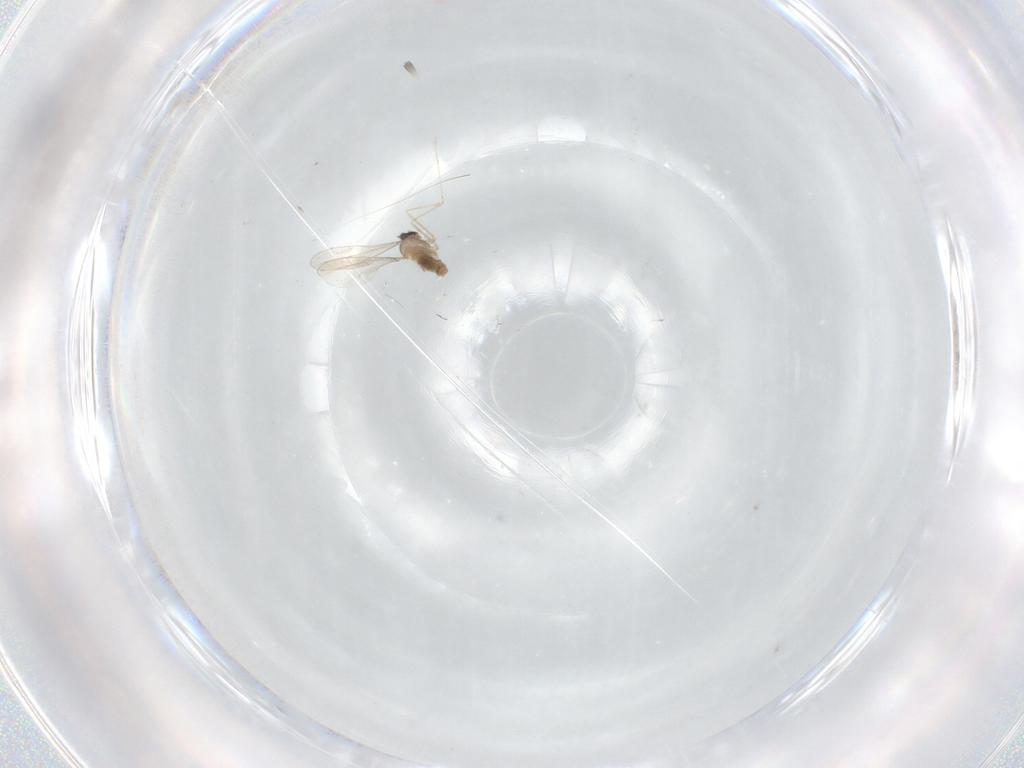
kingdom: Animalia
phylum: Arthropoda
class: Insecta
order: Diptera
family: Cecidomyiidae
